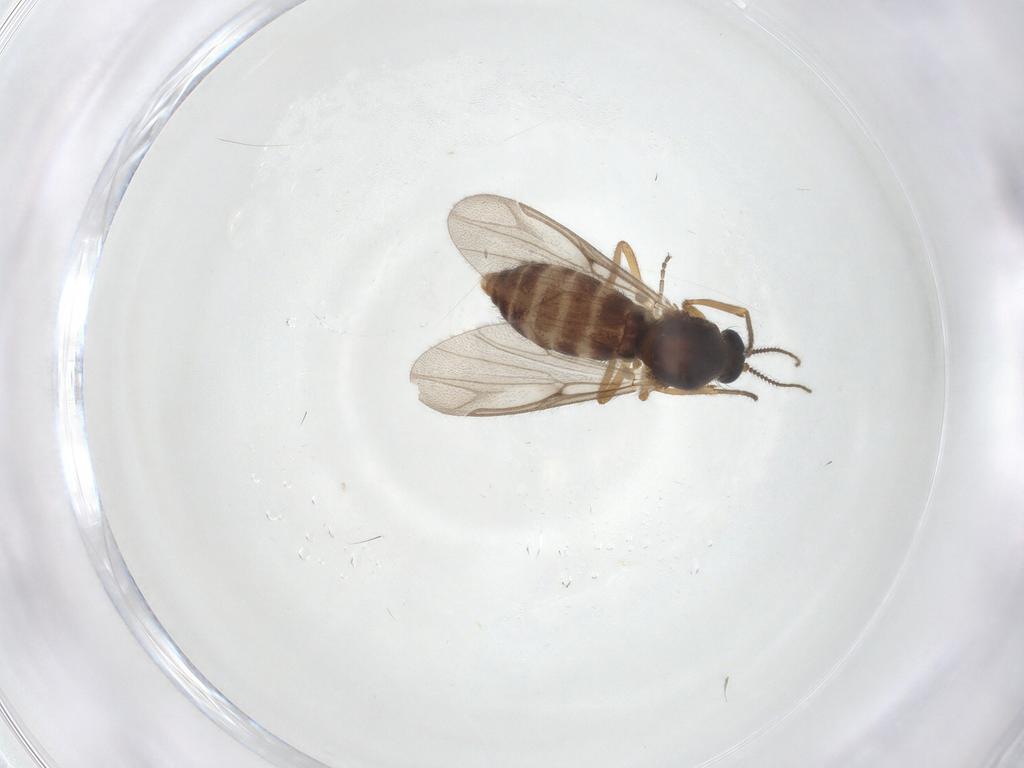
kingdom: Animalia
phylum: Arthropoda
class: Insecta
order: Diptera
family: Ceratopogonidae
